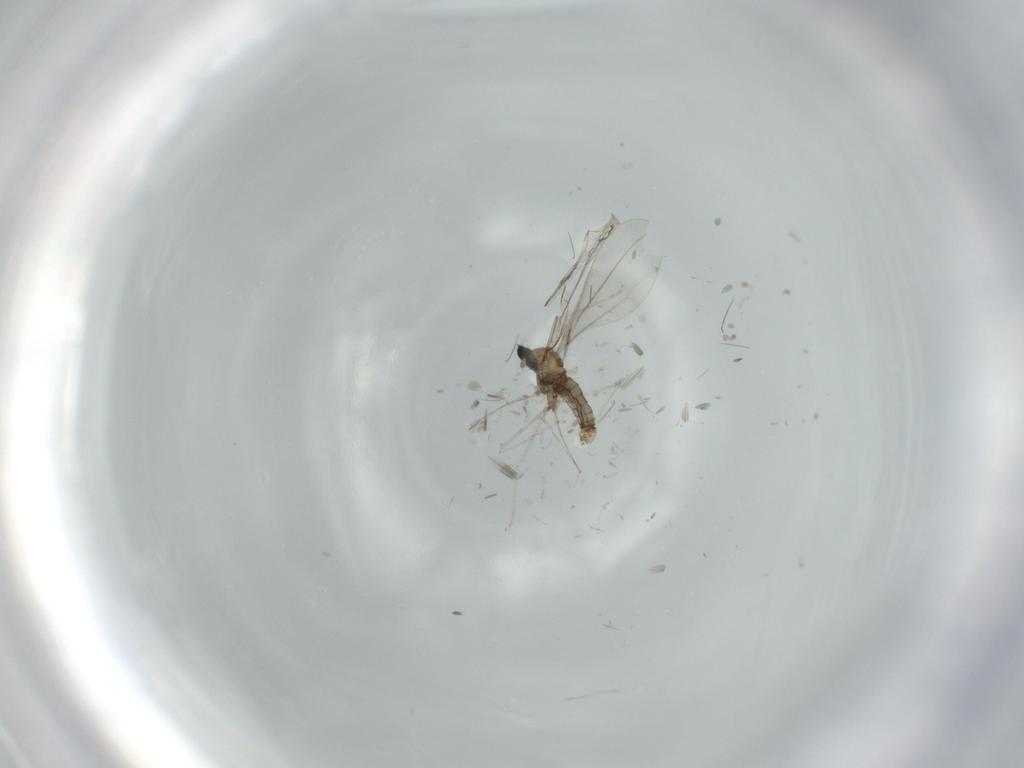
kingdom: Animalia
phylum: Arthropoda
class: Insecta
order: Diptera
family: Cecidomyiidae
